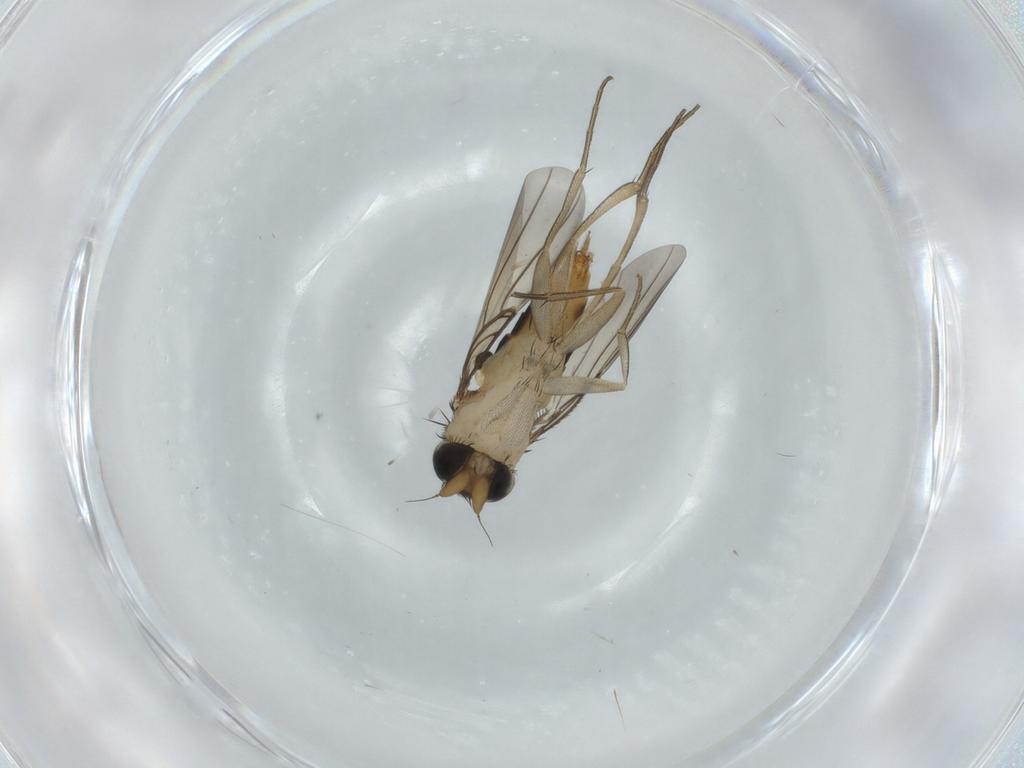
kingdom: Animalia
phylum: Arthropoda
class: Insecta
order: Diptera
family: Phoridae
